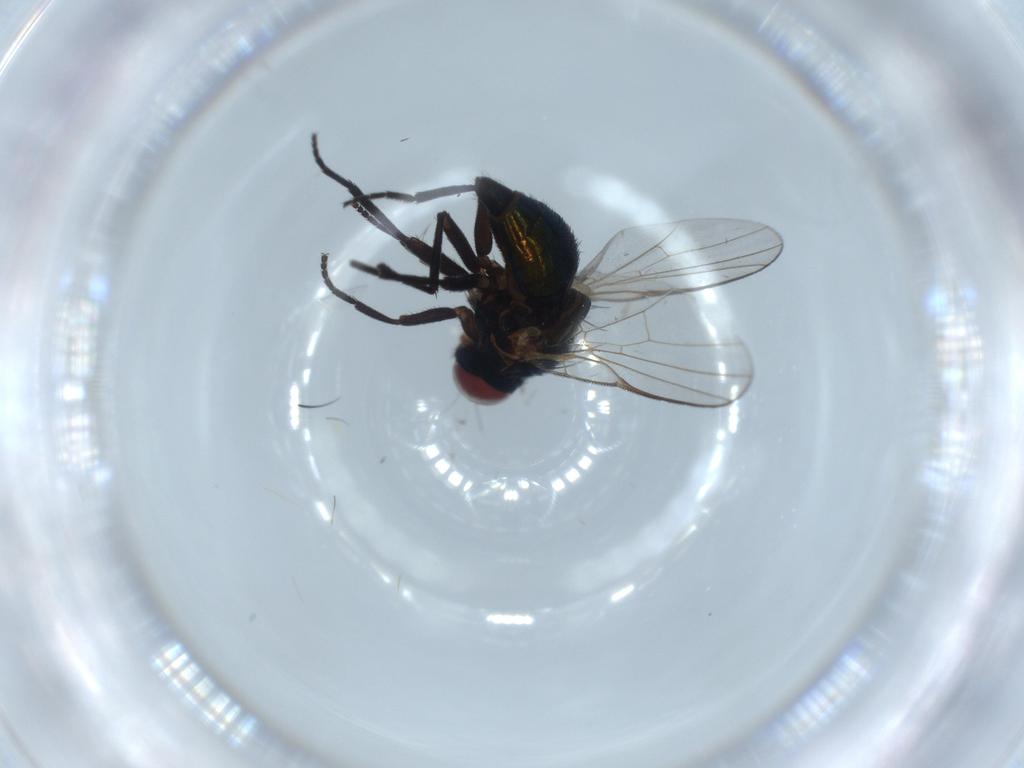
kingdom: Animalia
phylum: Arthropoda
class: Insecta
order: Diptera
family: Agromyzidae
